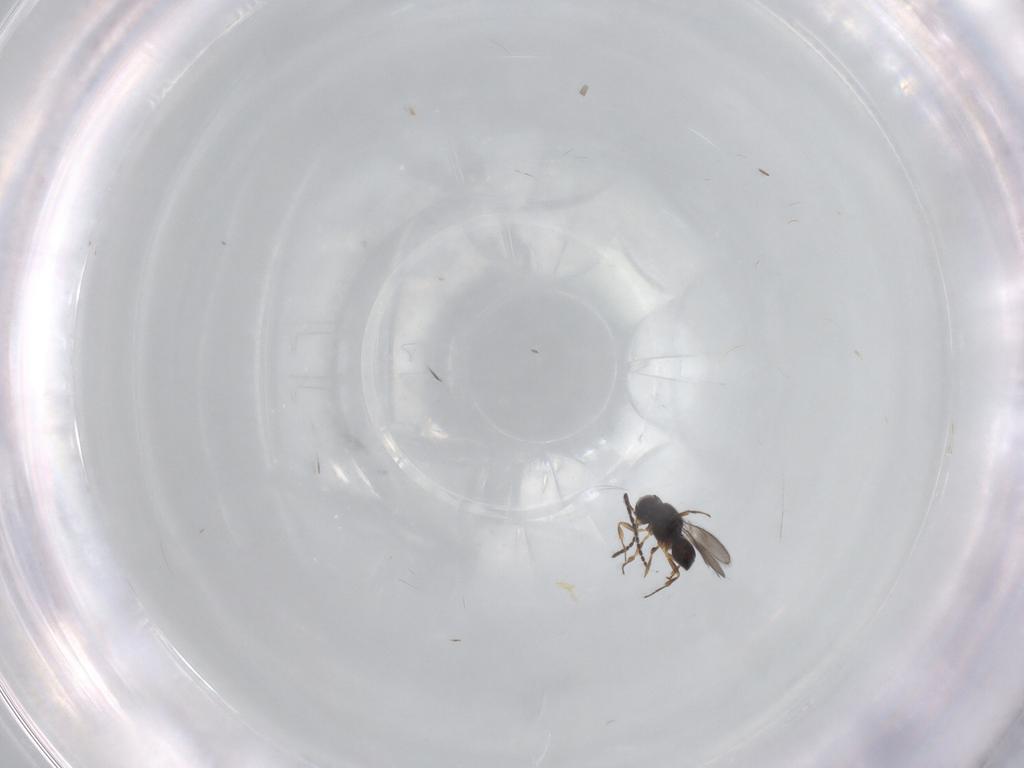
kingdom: Animalia
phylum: Arthropoda
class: Insecta
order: Hymenoptera
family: Scelionidae
